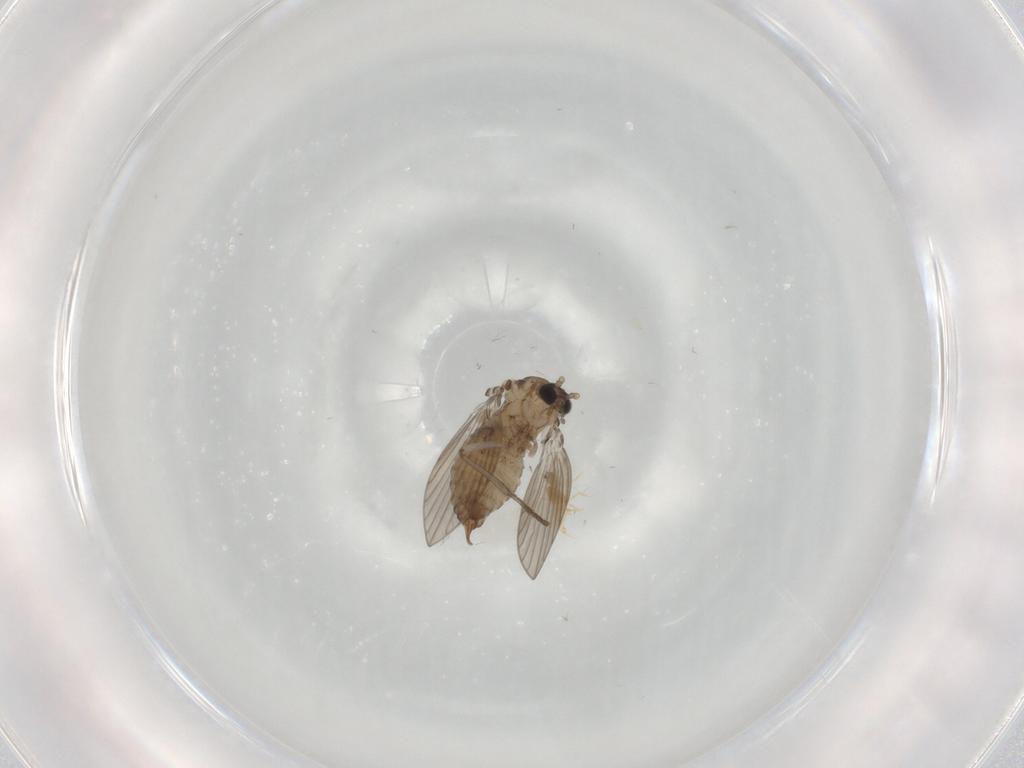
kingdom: Animalia
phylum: Arthropoda
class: Insecta
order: Diptera
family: Psychodidae
